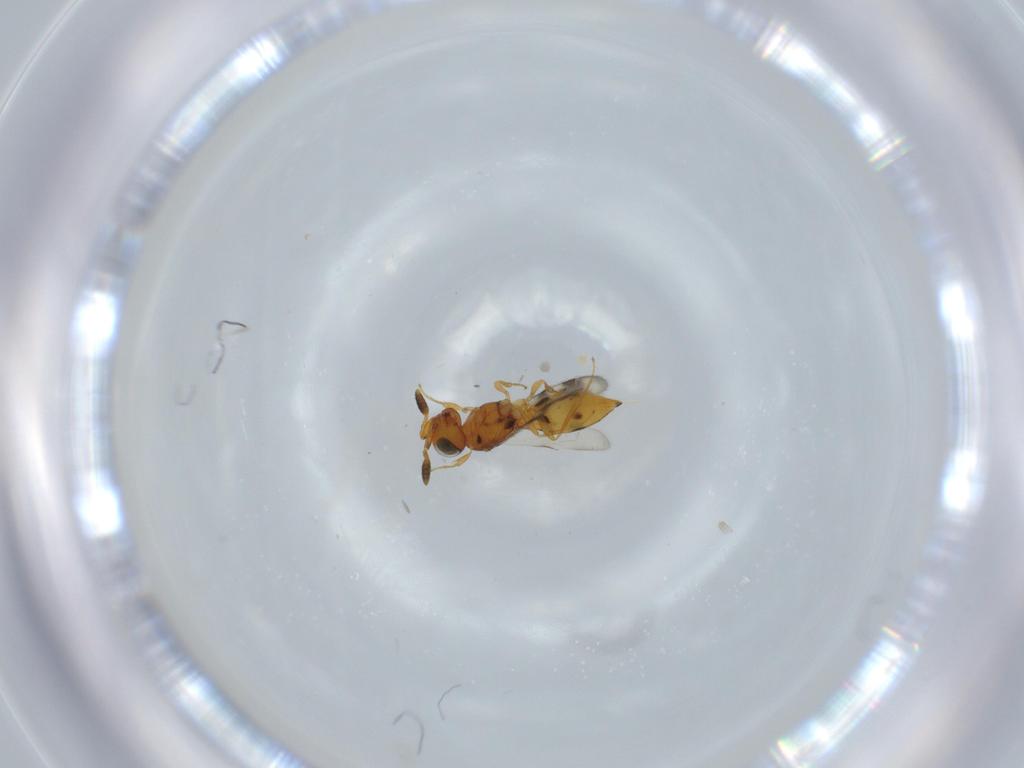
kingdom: Animalia
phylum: Arthropoda
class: Insecta
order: Hymenoptera
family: Scelionidae
